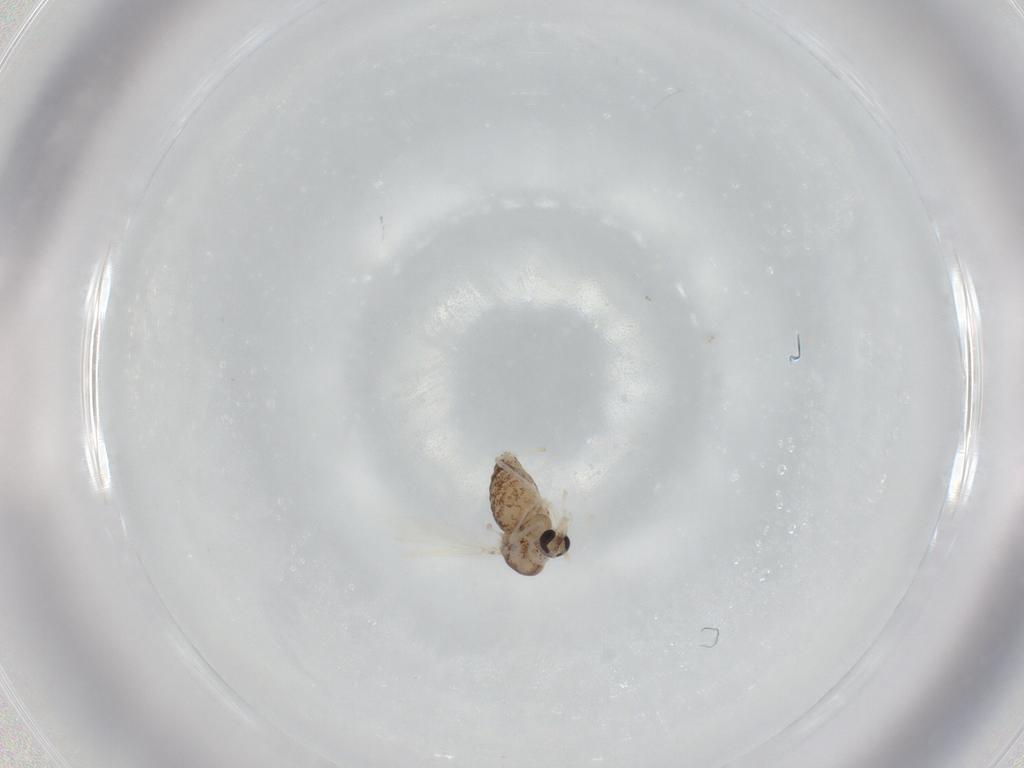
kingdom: Animalia
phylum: Arthropoda
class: Insecta
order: Diptera
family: Chironomidae
